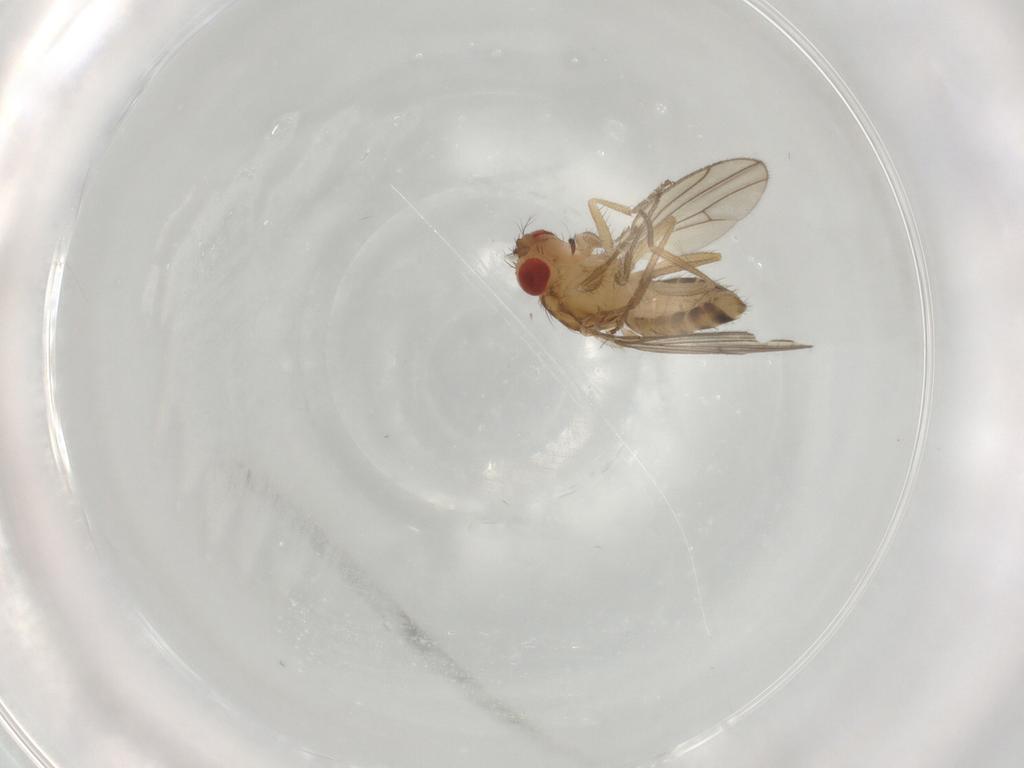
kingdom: Animalia
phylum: Arthropoda
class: Insecta
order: Diptera
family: Drosophilidae
